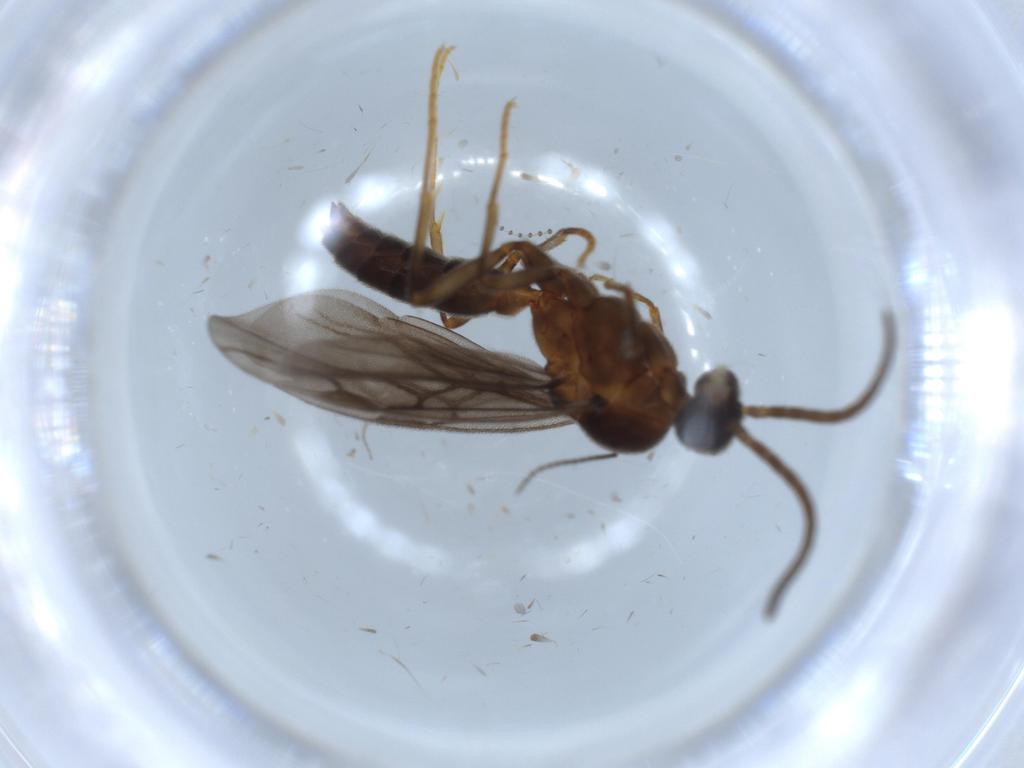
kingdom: Animalia
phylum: Arthropoda
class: Insecta
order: Hymenoptera
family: Formicidae
